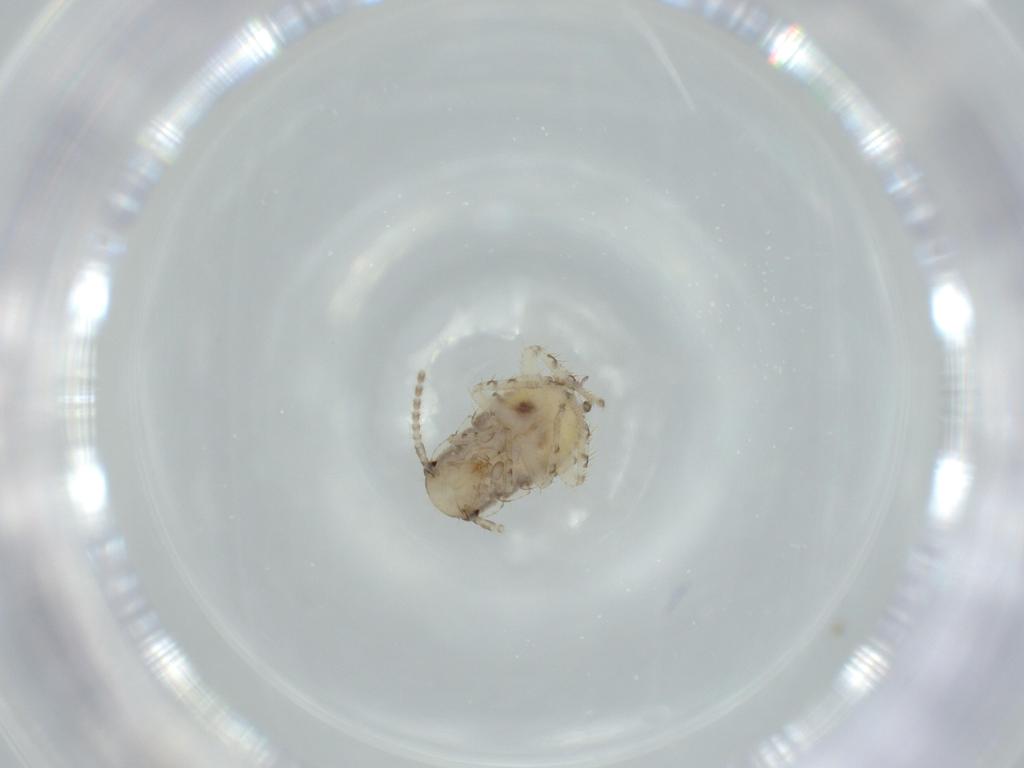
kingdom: Animalia
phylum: Arthropoda
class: Insecta
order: Blattodea
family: Ectobiidae
